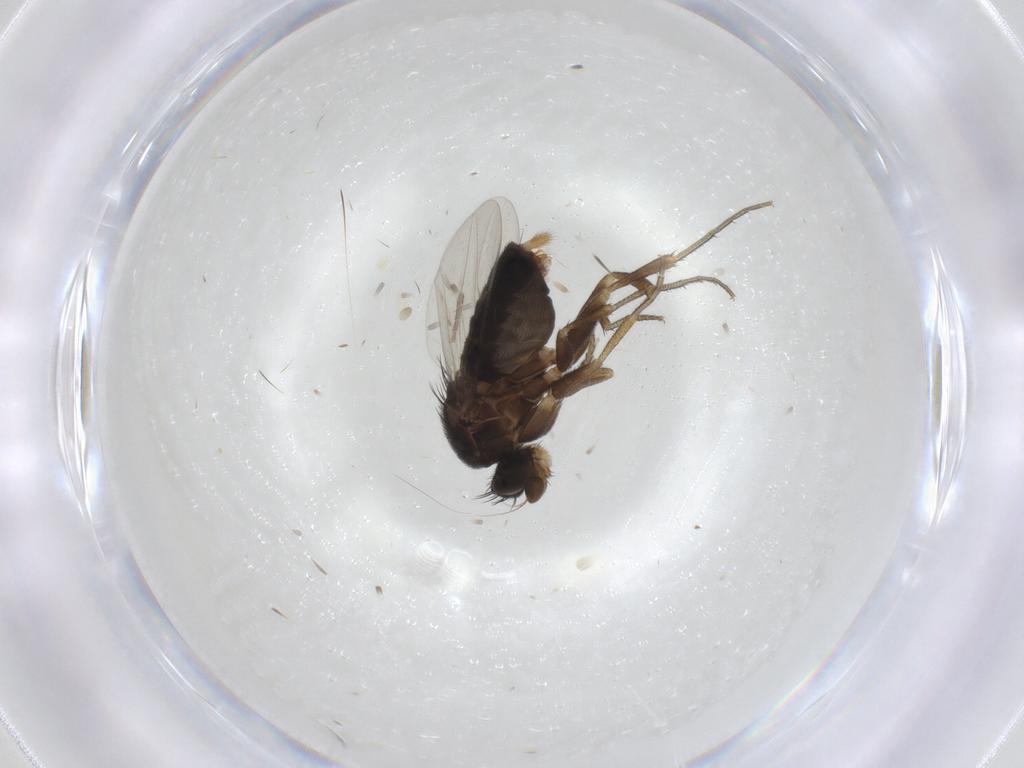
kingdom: Animalia
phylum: Arthropoda
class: Insecta
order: Diptera
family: Phoridae
